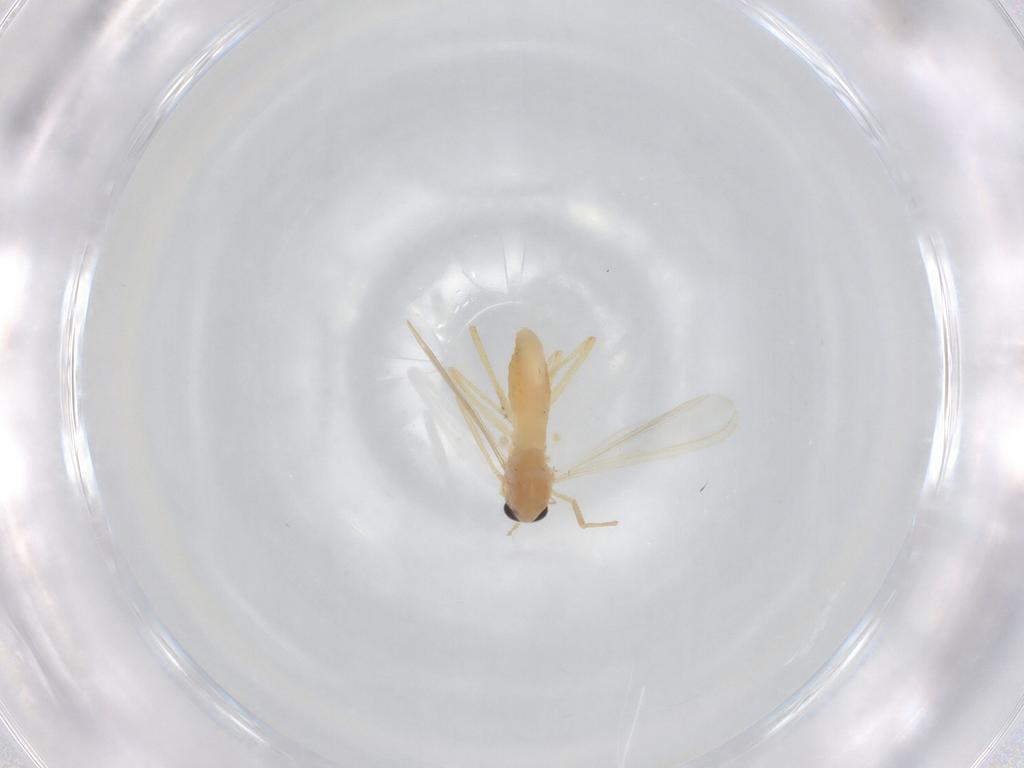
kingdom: Animalia
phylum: Arthropoda
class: Insecta
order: Diptera
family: Chironomidae
